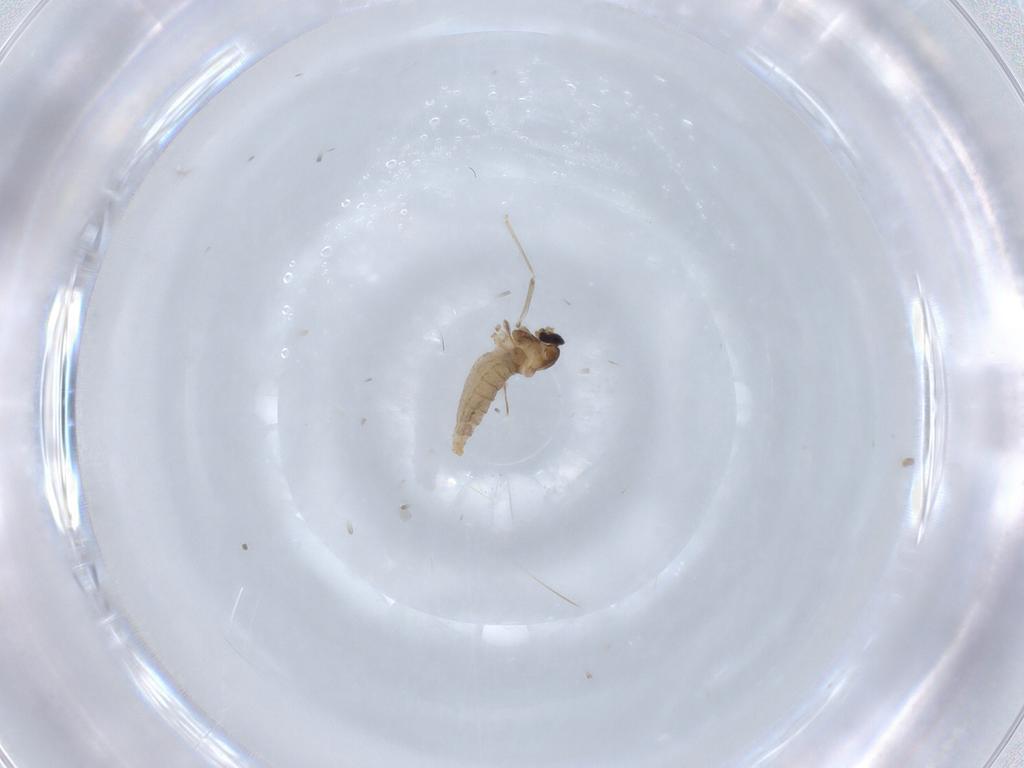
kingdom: Animalia
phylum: Arthropoda
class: Insecta
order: Diptera
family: Cecidomyiidae
